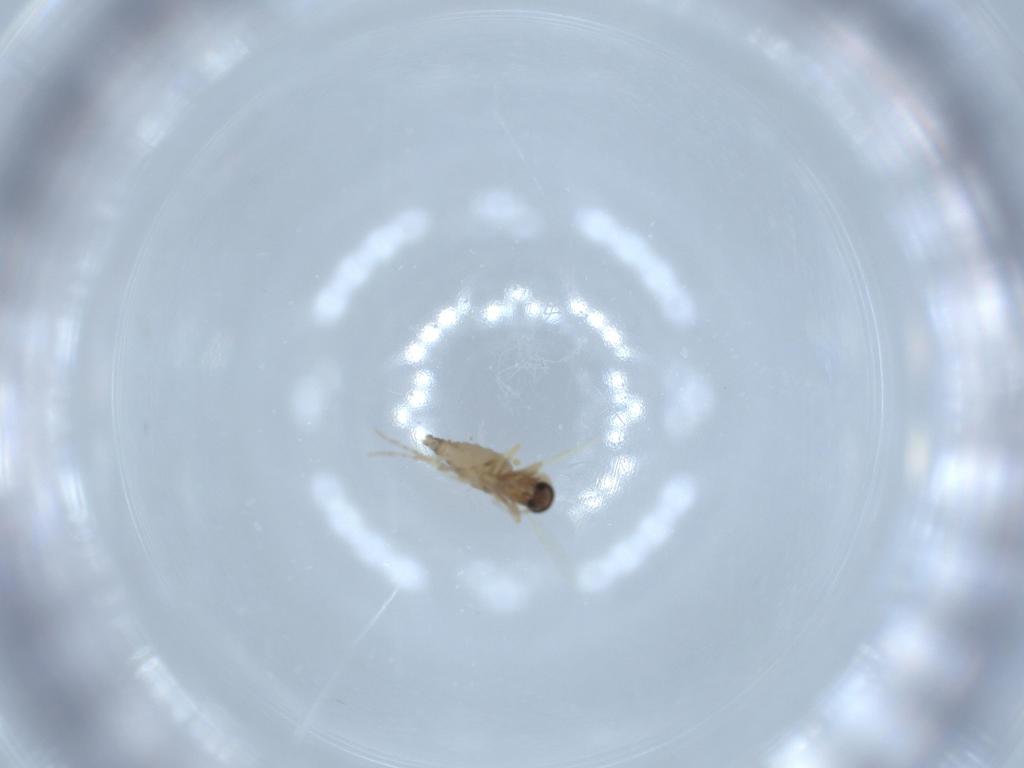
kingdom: Animalia
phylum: Arthropoda
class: Insecta
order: Diptera
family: Ceratopogonidae
